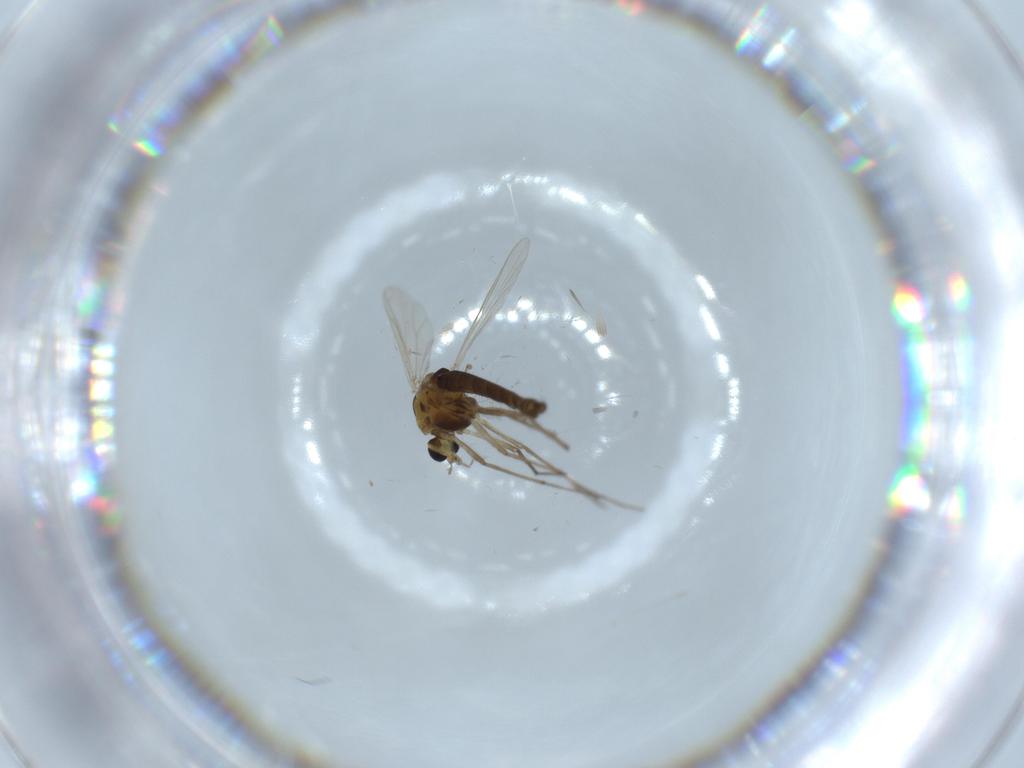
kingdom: Animalia
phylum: Arthropoda
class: Insecta
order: Diptera
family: Chironomidae
